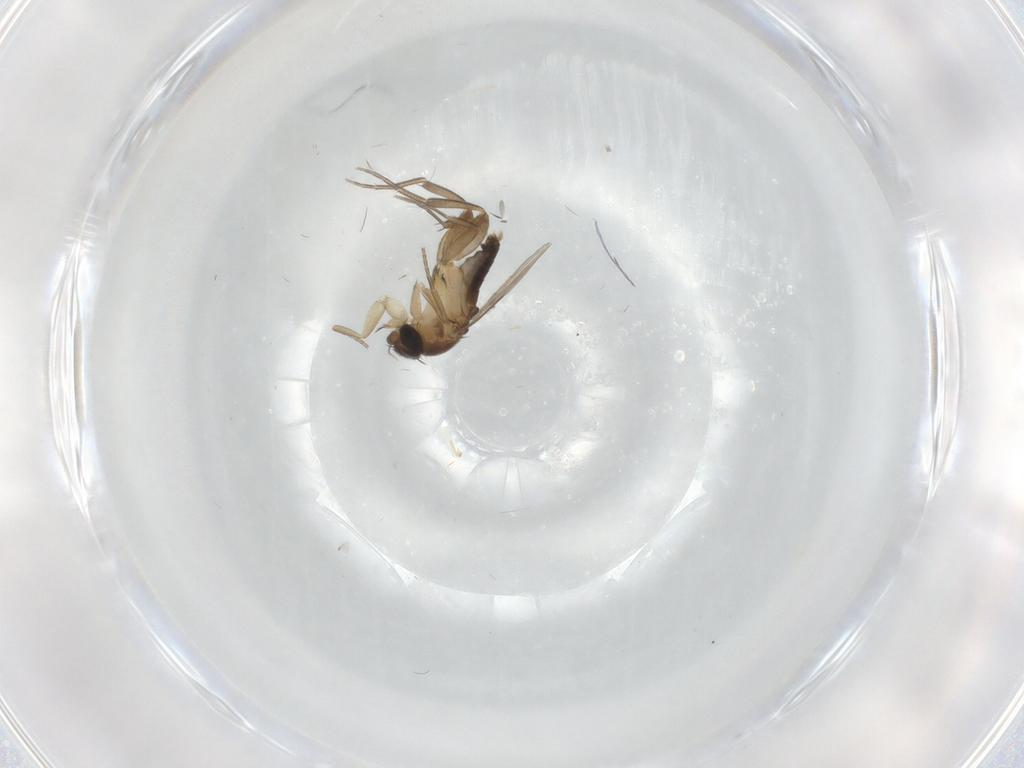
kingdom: Animalia
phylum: Arthropoda
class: Insecta
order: Diptera
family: Phoridae
